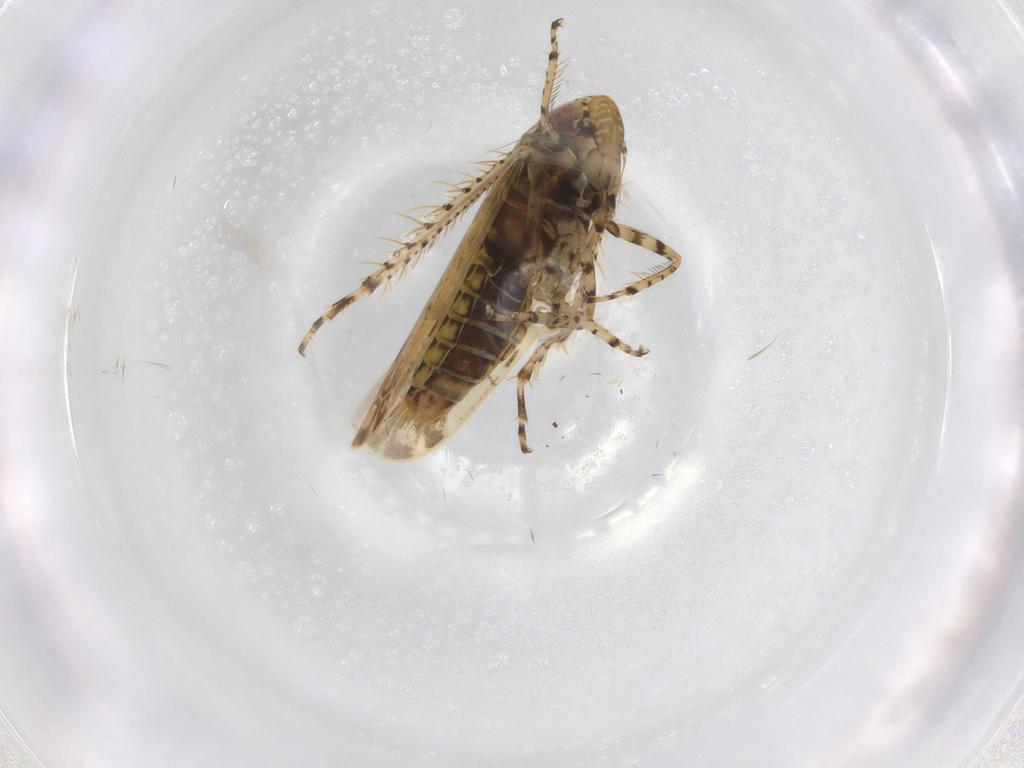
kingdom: Animalia
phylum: Arthropoda
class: Insecta
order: Hemiptera
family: Cicadellidae
